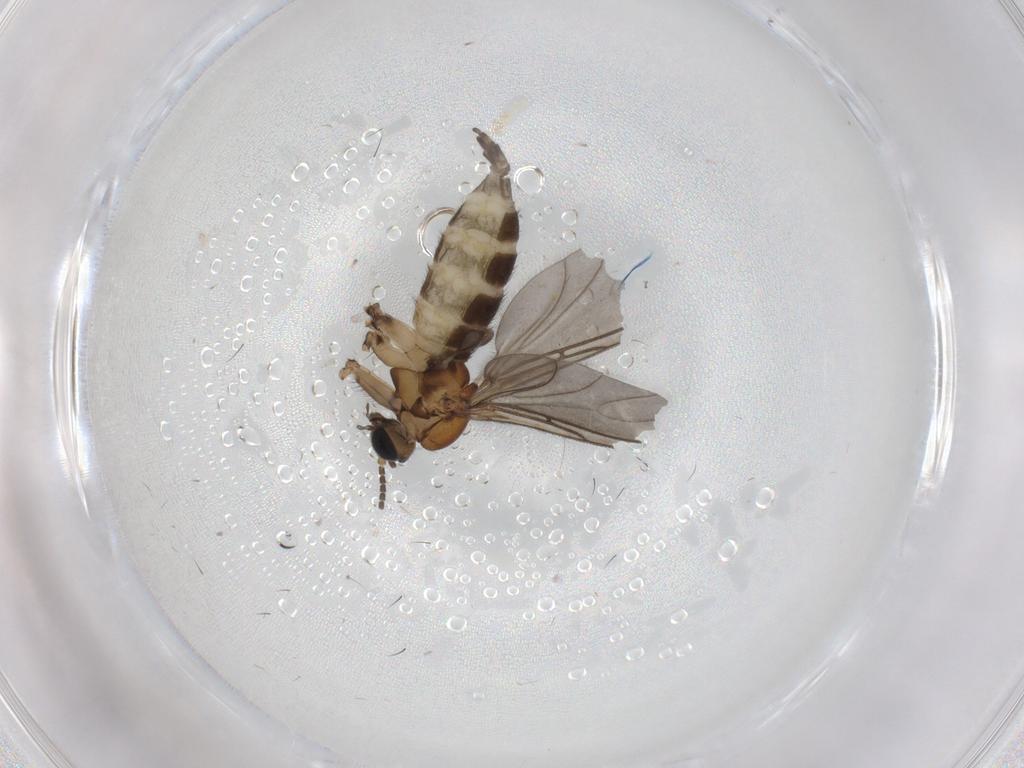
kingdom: Animalia
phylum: Arthropoda
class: Insecta
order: Diptera
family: Sciaridae
